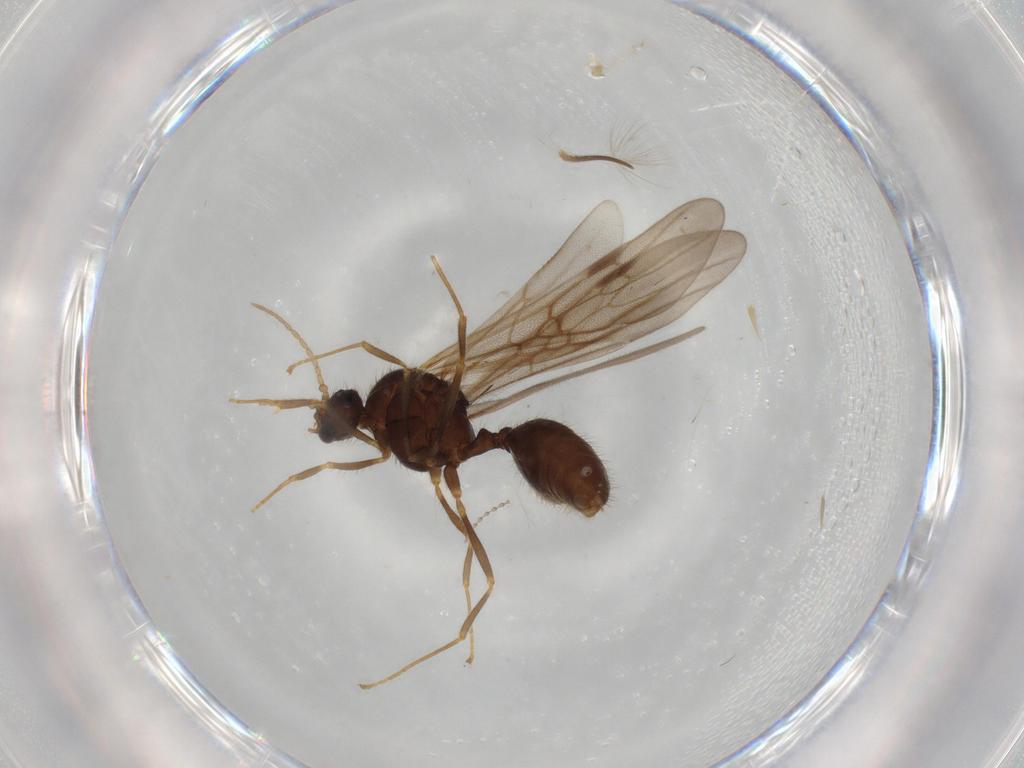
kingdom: Animalia
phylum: Arthropoda
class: Insecta
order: Hymenoptera
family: Formicidae
